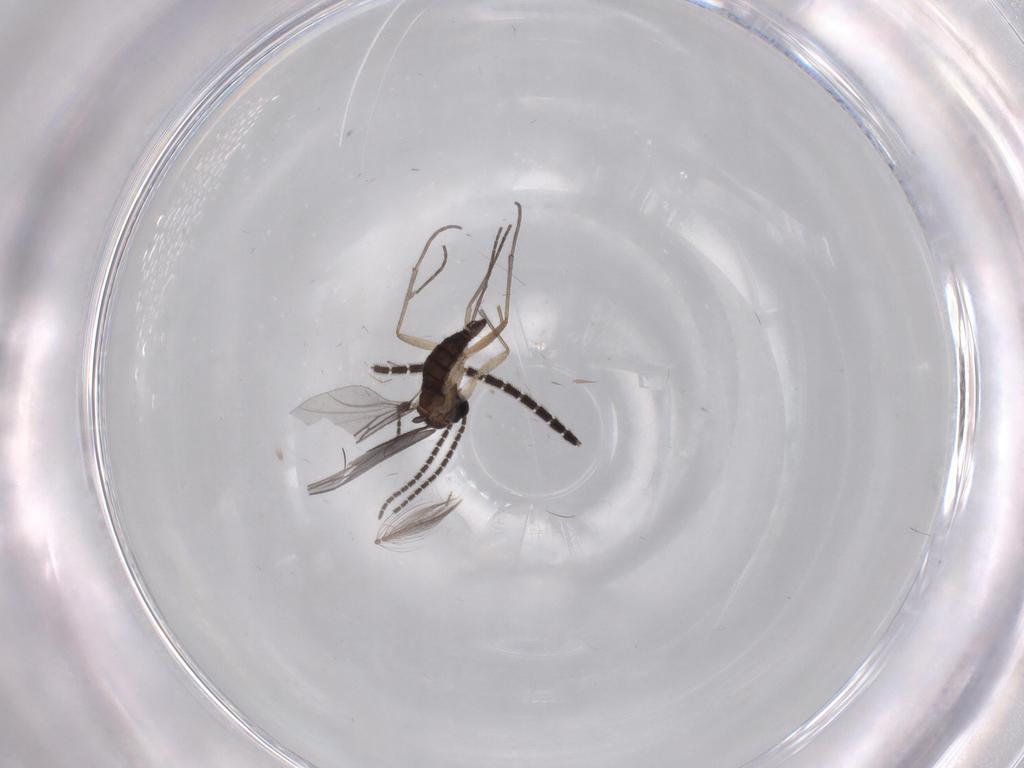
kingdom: Animalia
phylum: Arthropoda
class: Insecta
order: Diptera
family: Sciaridae
